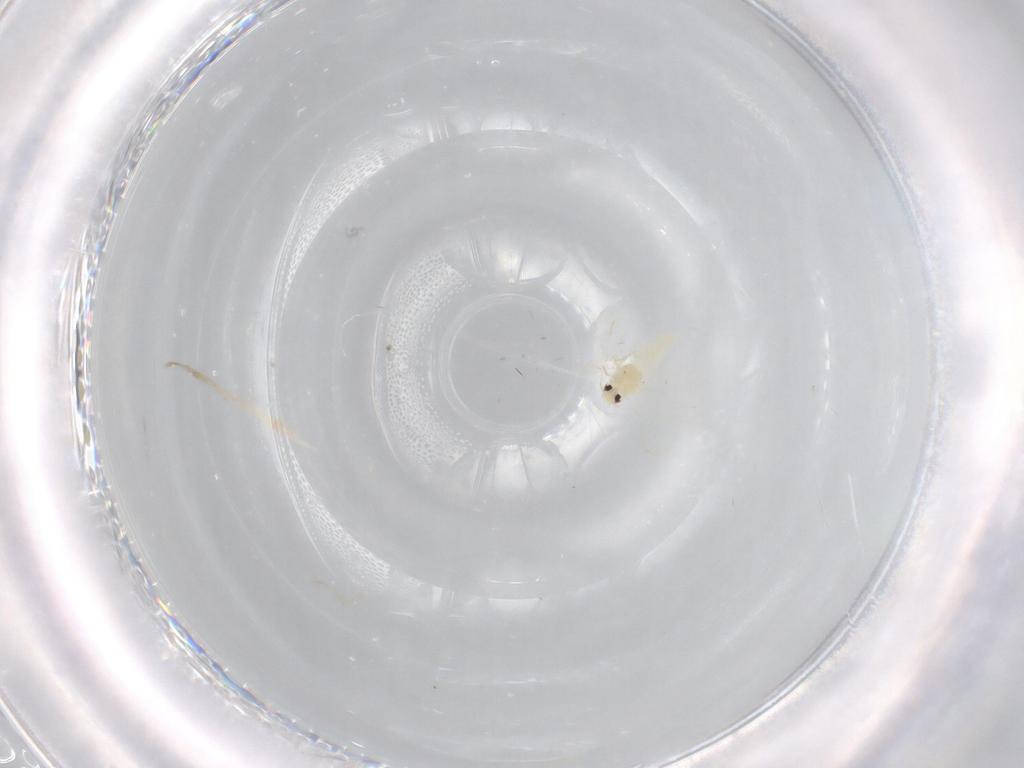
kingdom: Animalia
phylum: Arthropoda
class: Insecta
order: Hemiptera
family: Aleyrodidae
